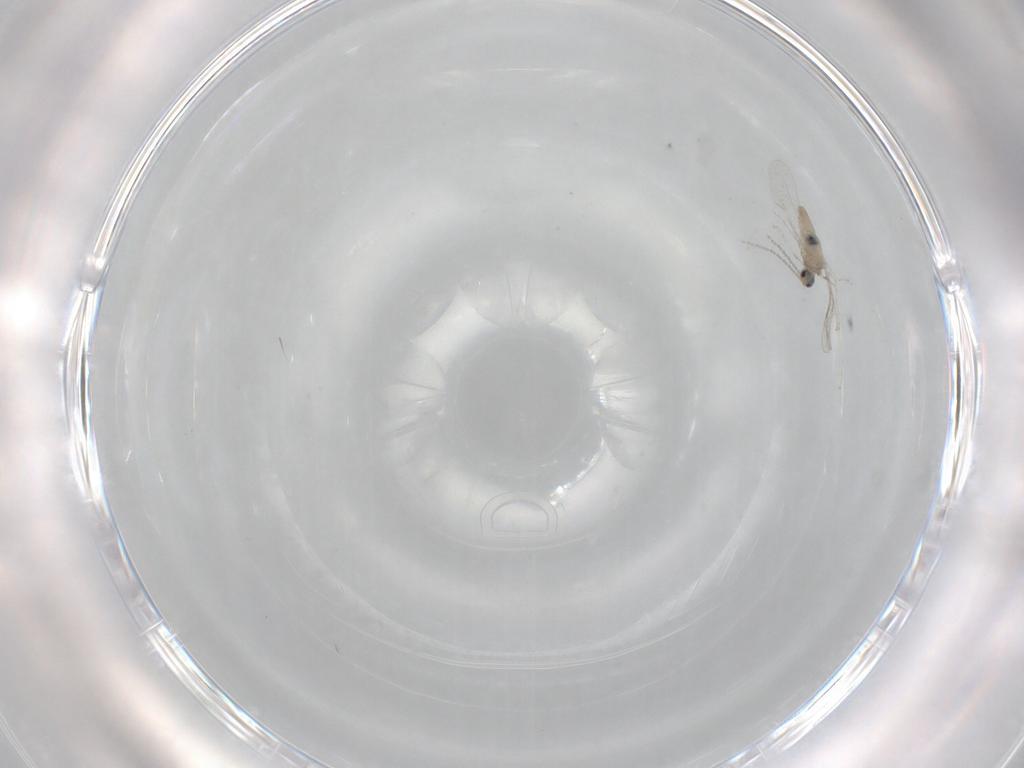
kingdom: Animalia
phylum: Arthropoda
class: Insecta
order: Diptera
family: Cecidomyiidae
